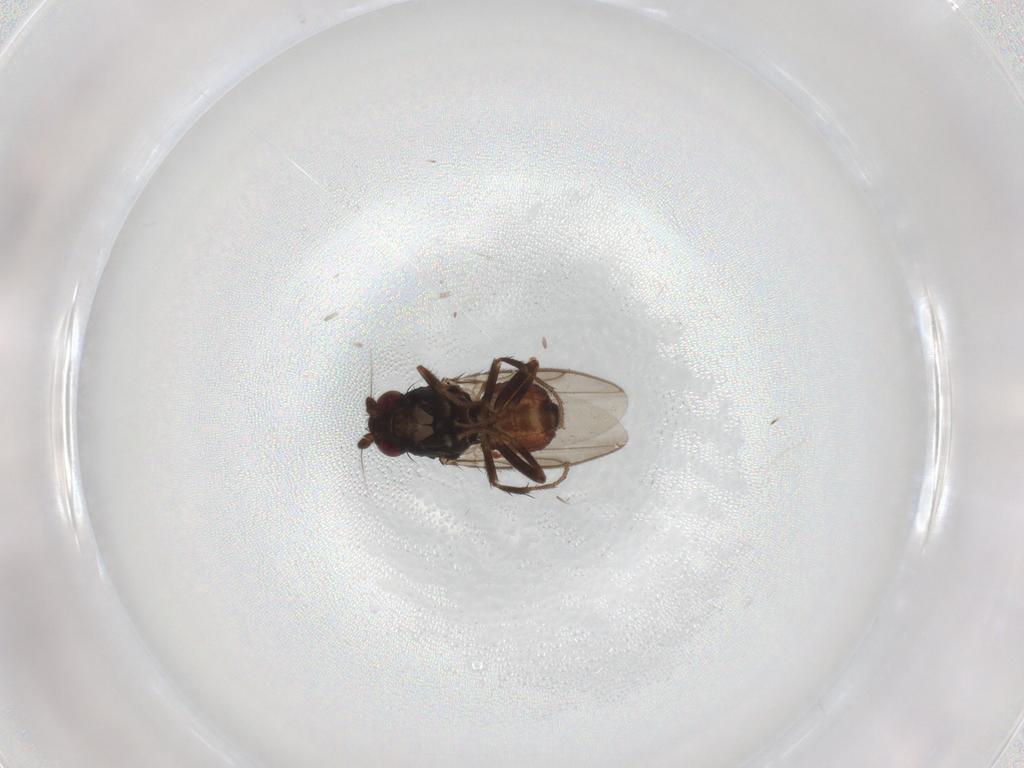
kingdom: Animalia
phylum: Arthropoda
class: Insecta
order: Diptera
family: Sphaeroceridae
